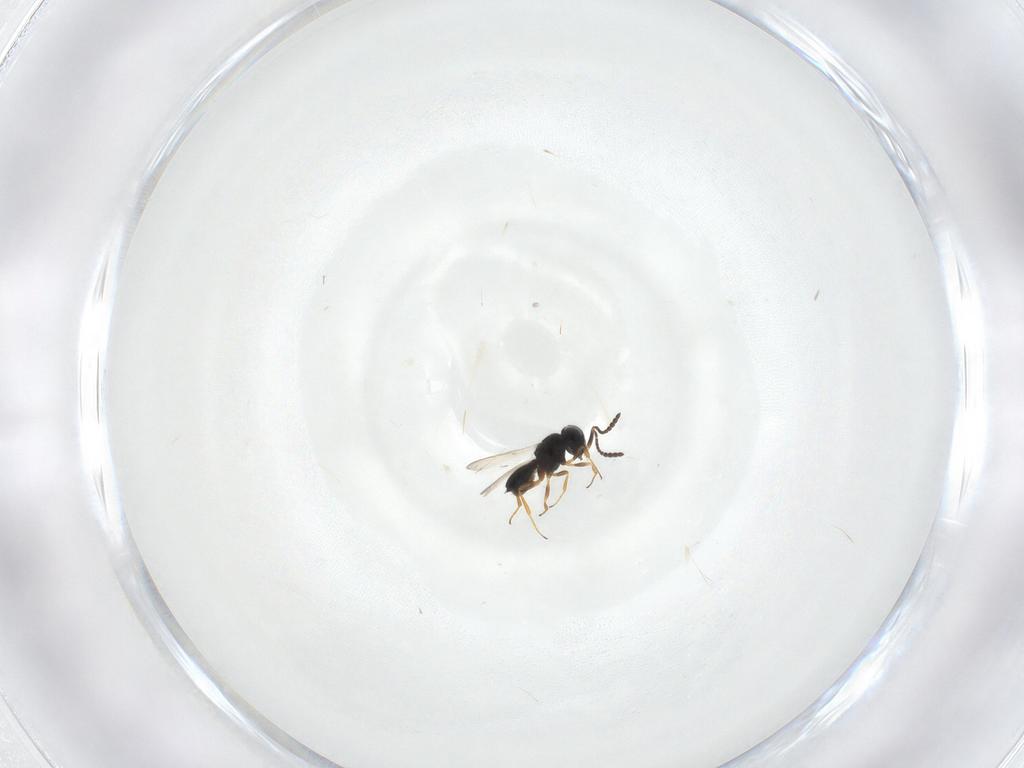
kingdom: Animalia
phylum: Arthropoda
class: Insecta
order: Hymenoptera
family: Scelionidae
